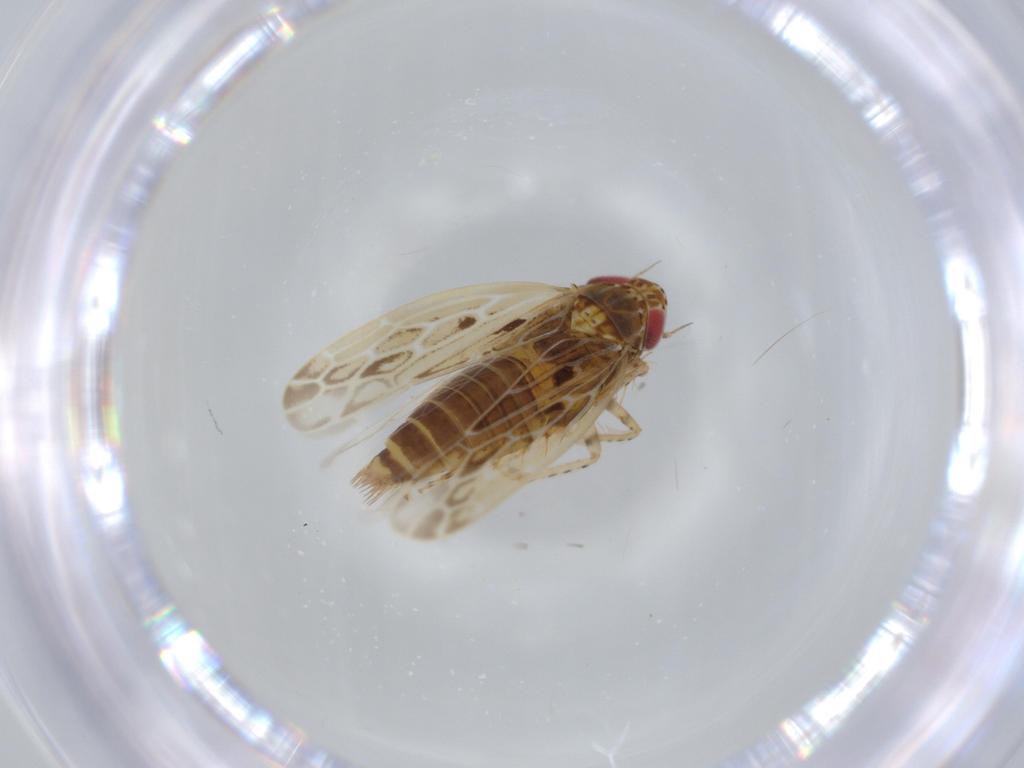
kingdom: Animalia
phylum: Arthropoda
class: Insecta
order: Hemiptera
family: Cicadellidae
